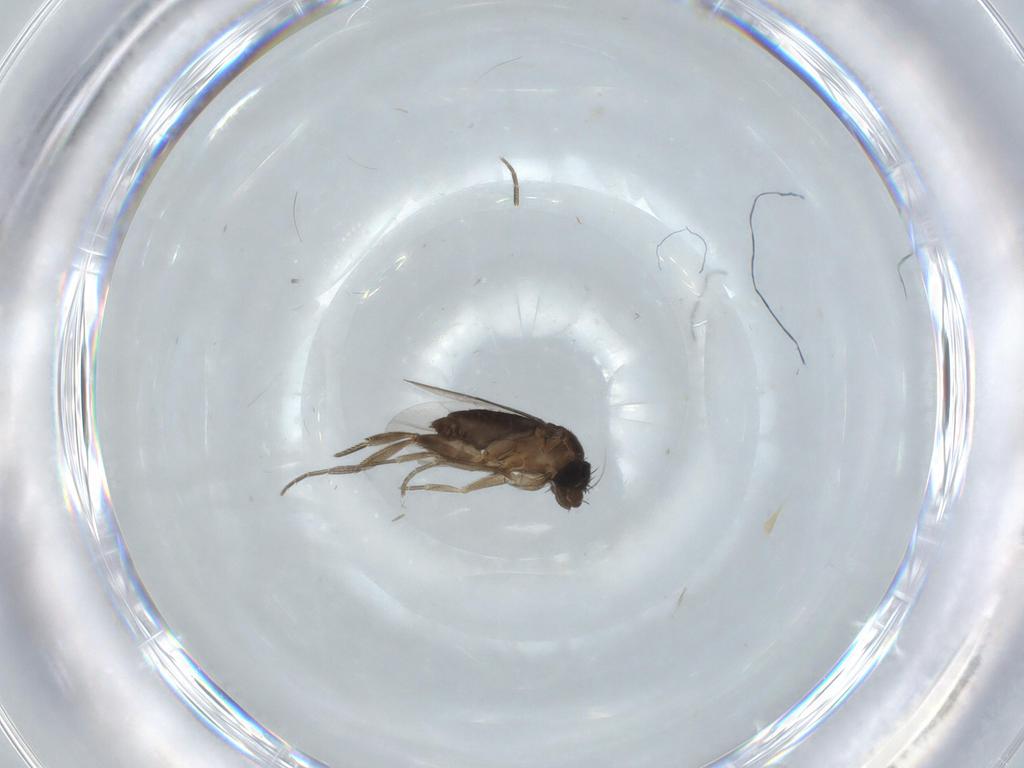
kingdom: Animalia
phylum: Arthropoda
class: Insecta
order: Diptera
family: Phoridae
